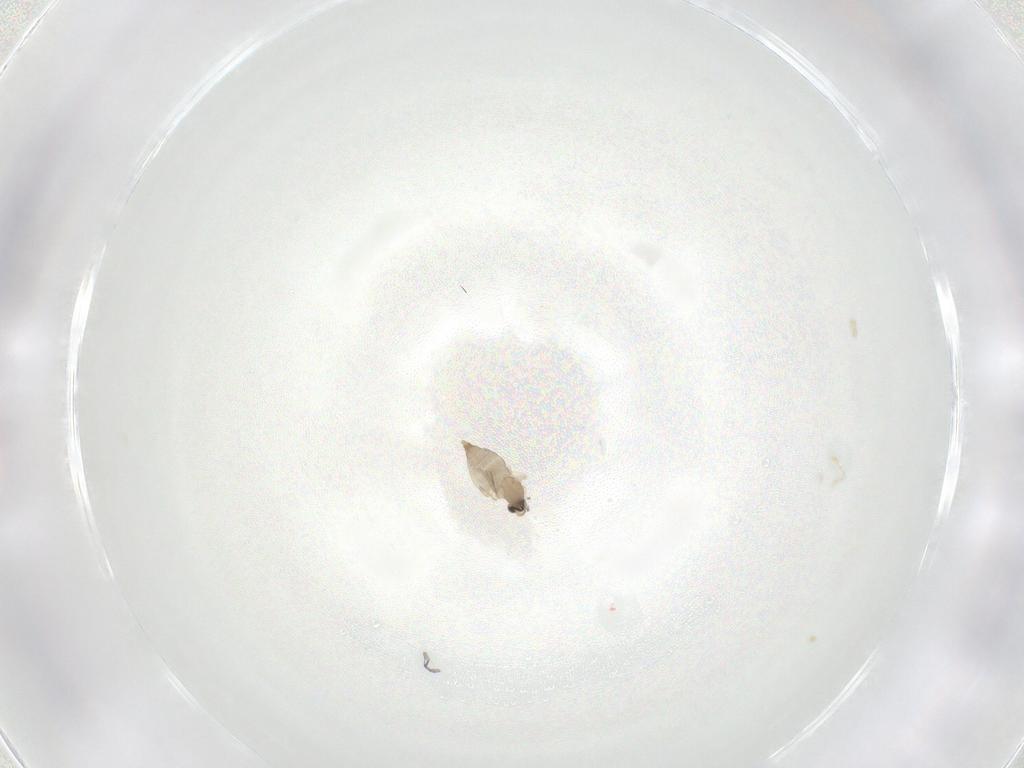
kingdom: Animalia
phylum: Arthropoda
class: Insecta
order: Diptera
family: Cecidomyiidae
